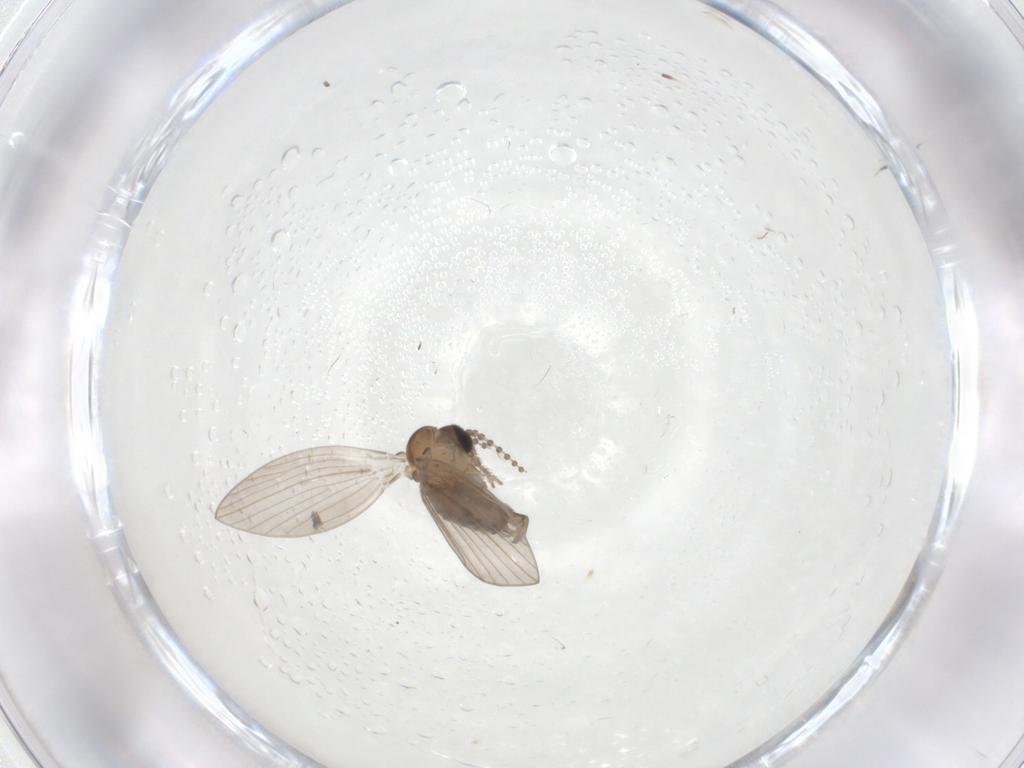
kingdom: Animalia
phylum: Arthropoda
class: Insecta
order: Diptera
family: Psychodidae
